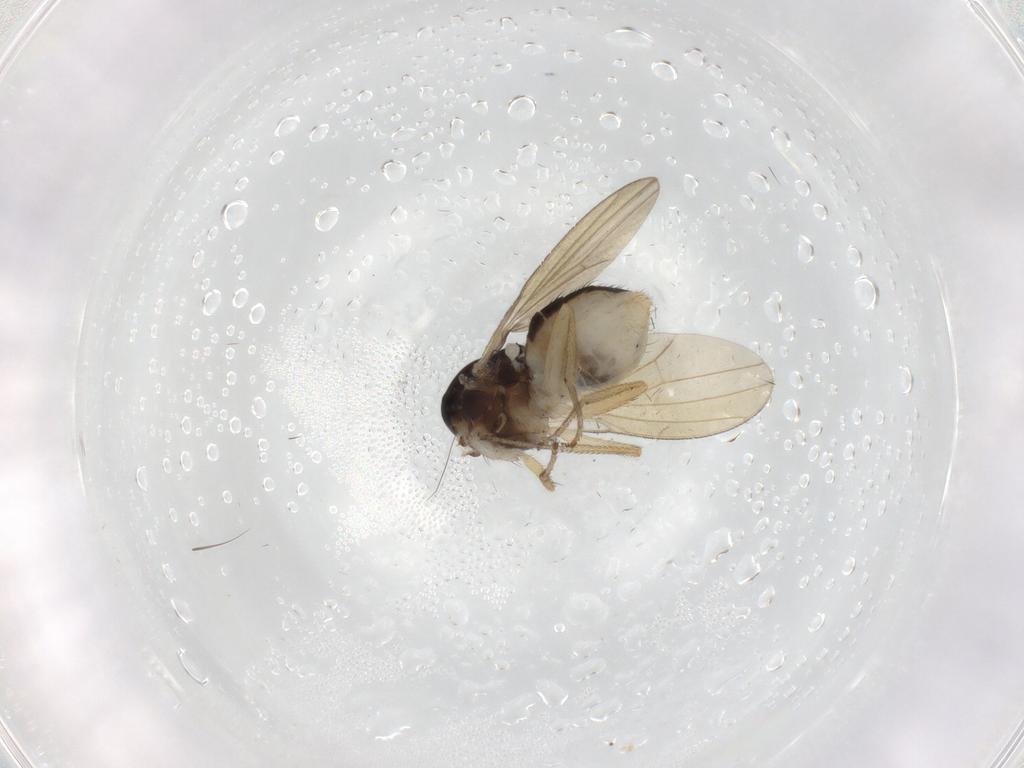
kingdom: Animalia
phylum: Arthropoda
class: Insecta
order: Diptera
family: Lauxaniidae
